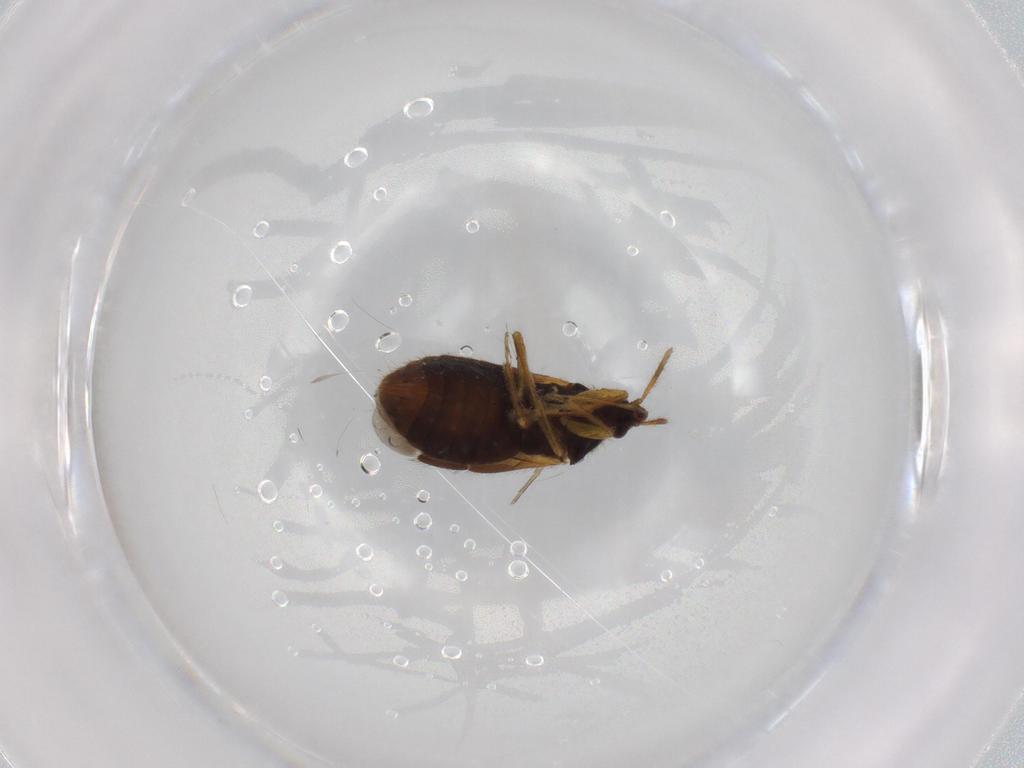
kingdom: Animalia
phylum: Arthropoda
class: Insecta
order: Hemiptera
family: Lasiochilidae
